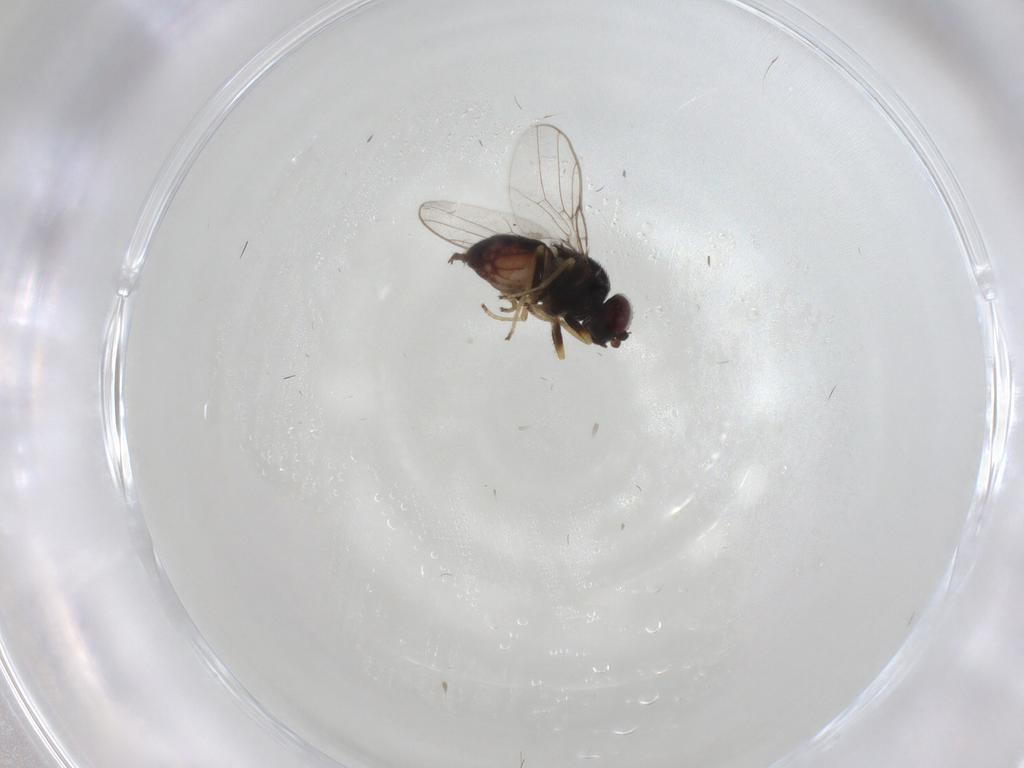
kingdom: Animalia
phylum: Arthropoda
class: Insecta
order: Diptera
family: Chloropidae
